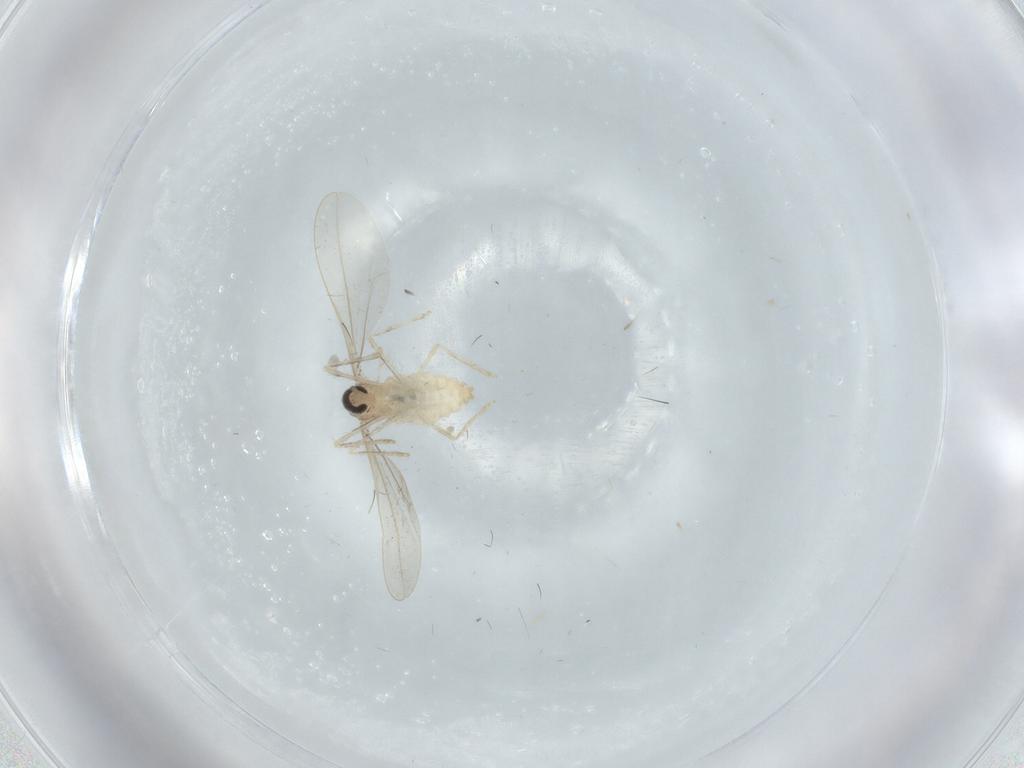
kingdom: Animalia
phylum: Arthropoda
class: Insecta
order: Diptera
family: Cecidomyiidae
